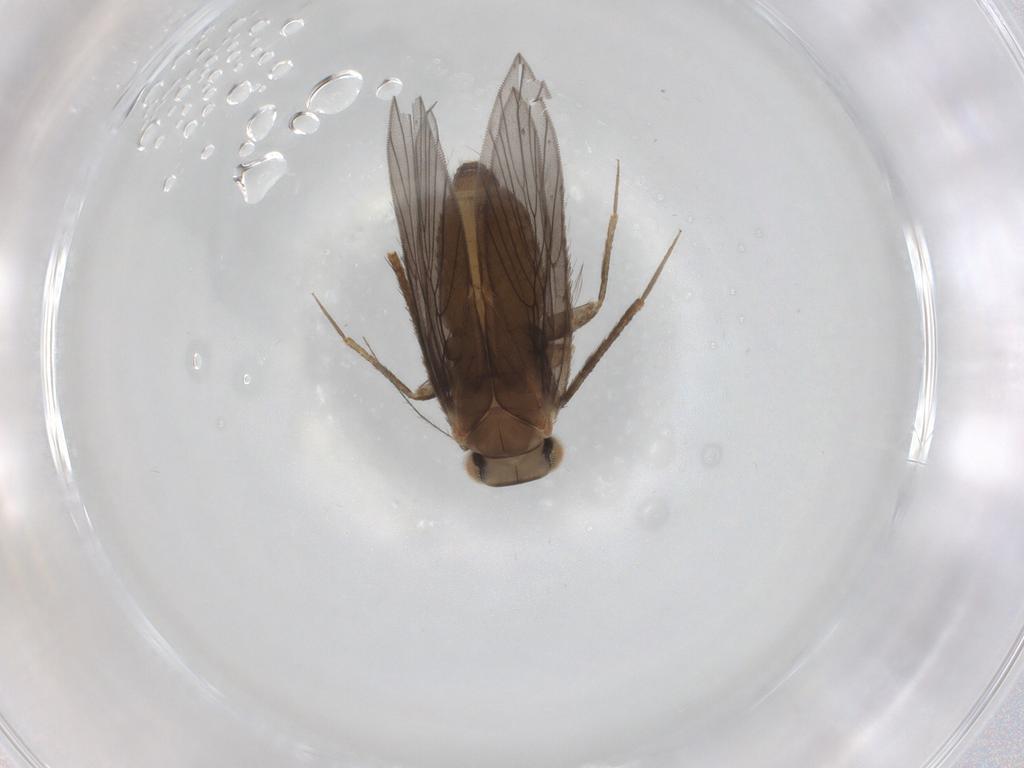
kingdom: Animalia
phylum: Arthropoda
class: Insecta
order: Psocodea
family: Lepidopsocidae
